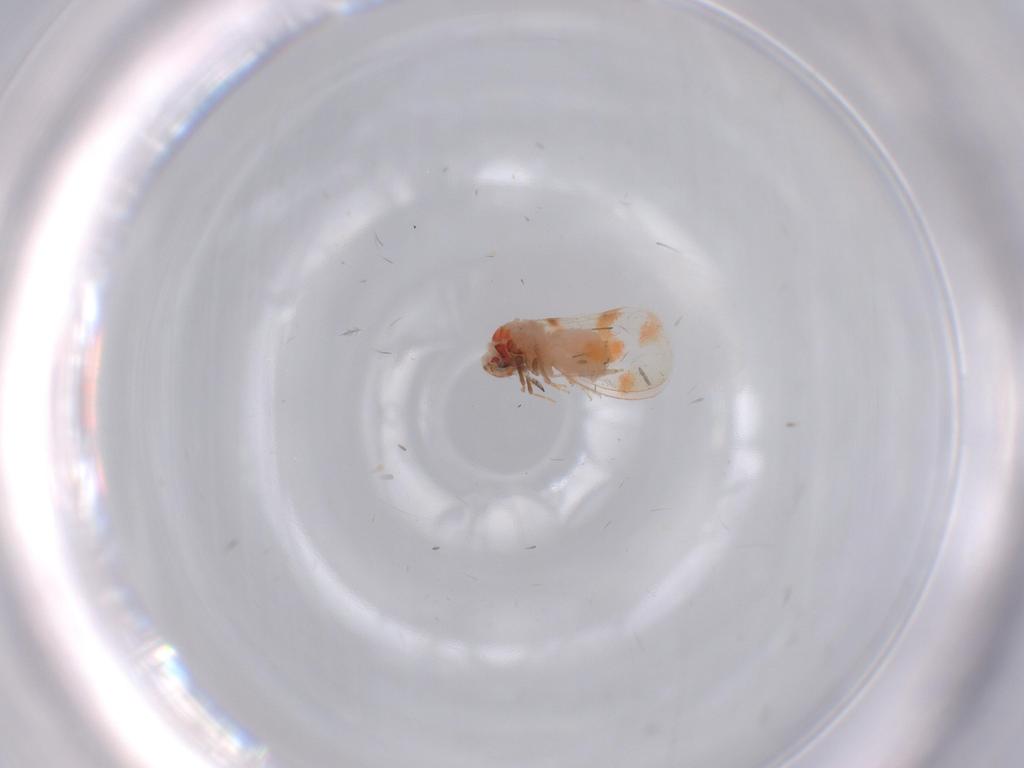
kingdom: Animalia
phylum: Arthropoda
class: Insecta
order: Hemiptera
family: Aleyrodidae
